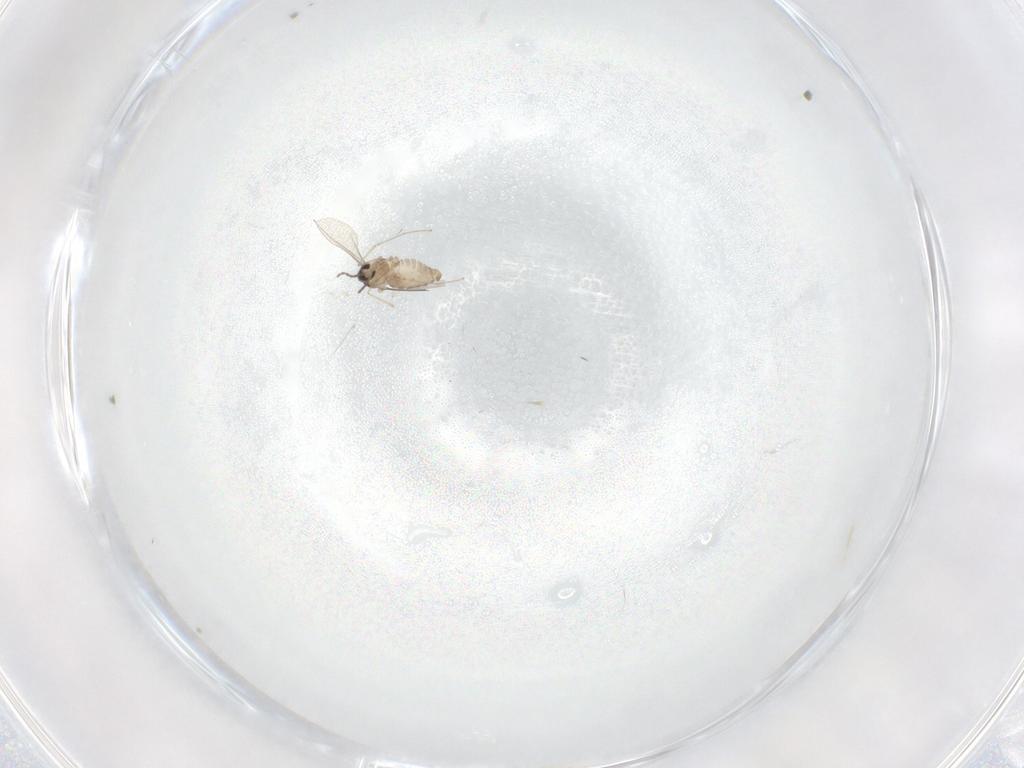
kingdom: Animalia
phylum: Arthropoda
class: Insecta
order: Diptera
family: Cecidomyiidae
